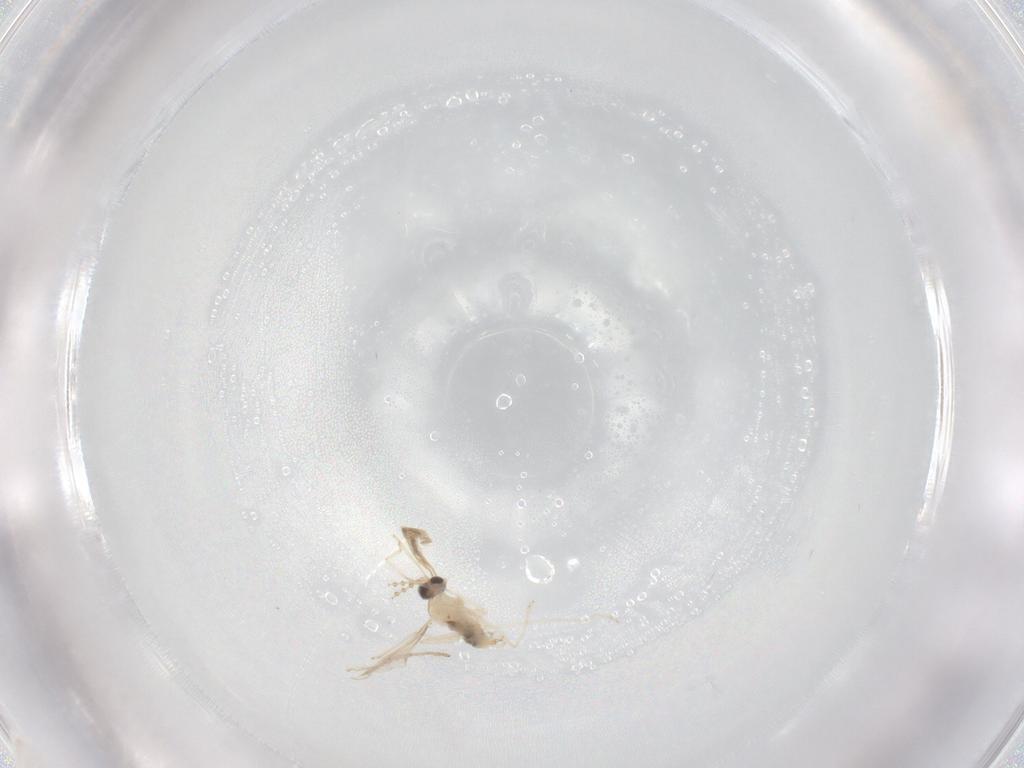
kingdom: Animalia
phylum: Arthropoda
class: Insecta
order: Diptera
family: Cecidomyiidae
